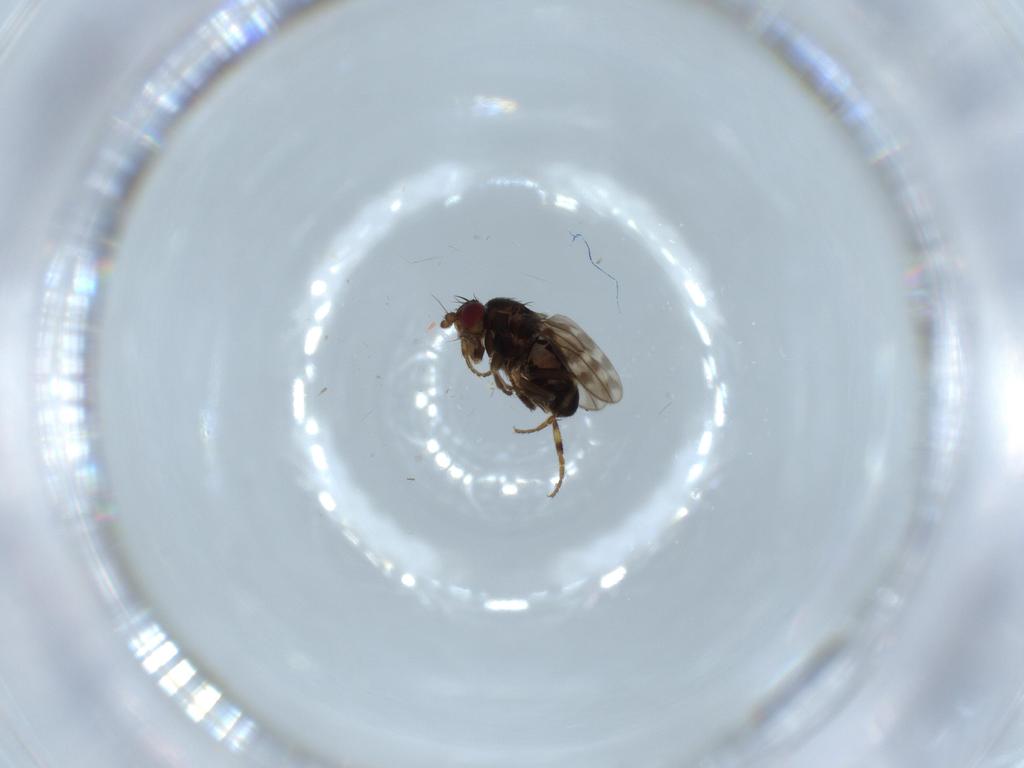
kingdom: Animalia
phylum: Arthropoda
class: Insecta
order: Diptera
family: Sphaeroceridae
